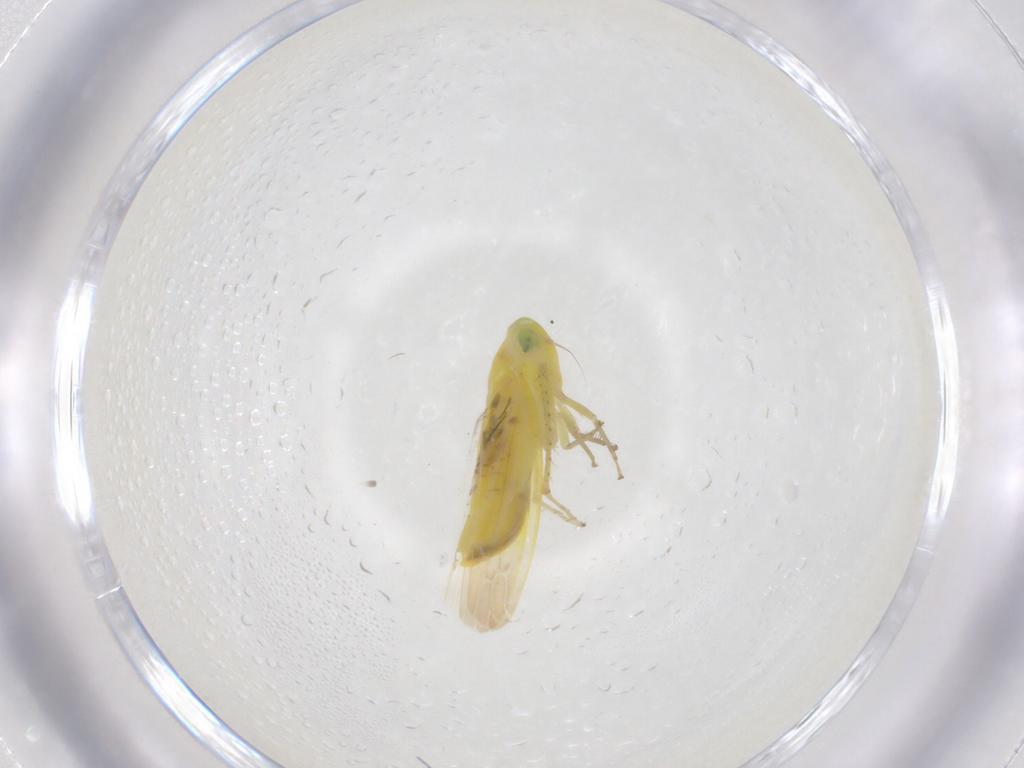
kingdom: Animalia
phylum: Arthropoda
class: Insecta
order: Hemiptera
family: Cicadellidae
